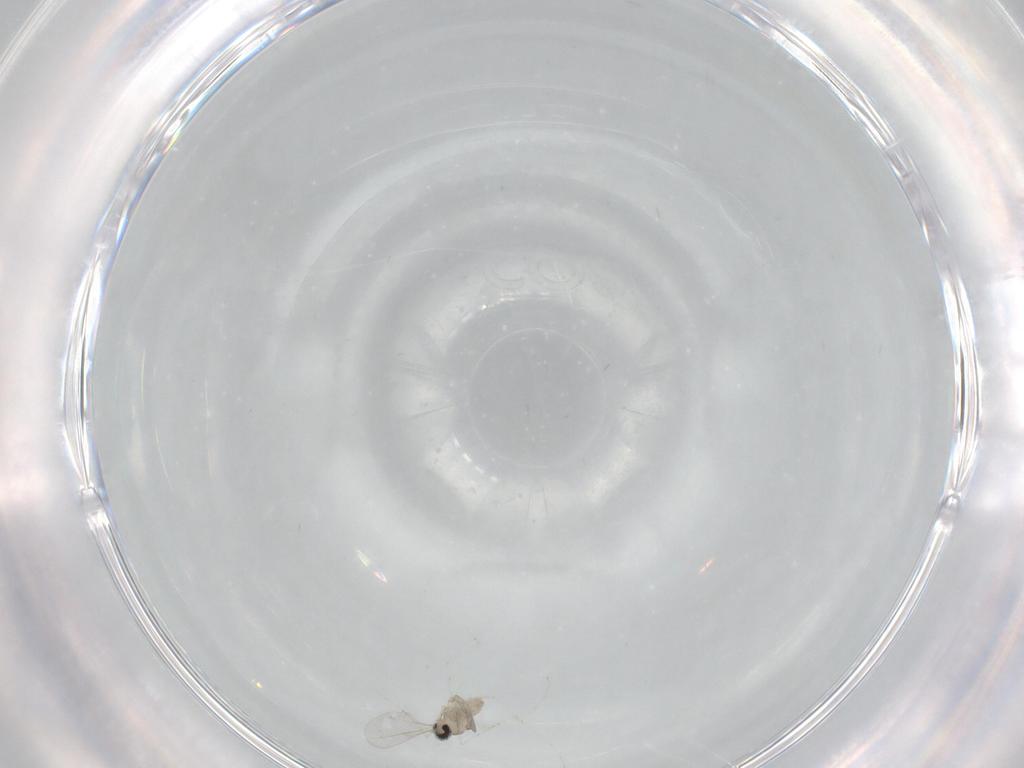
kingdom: Animalia
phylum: Arthropoda
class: Insecta
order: Diptera
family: Cecidomyiidae
